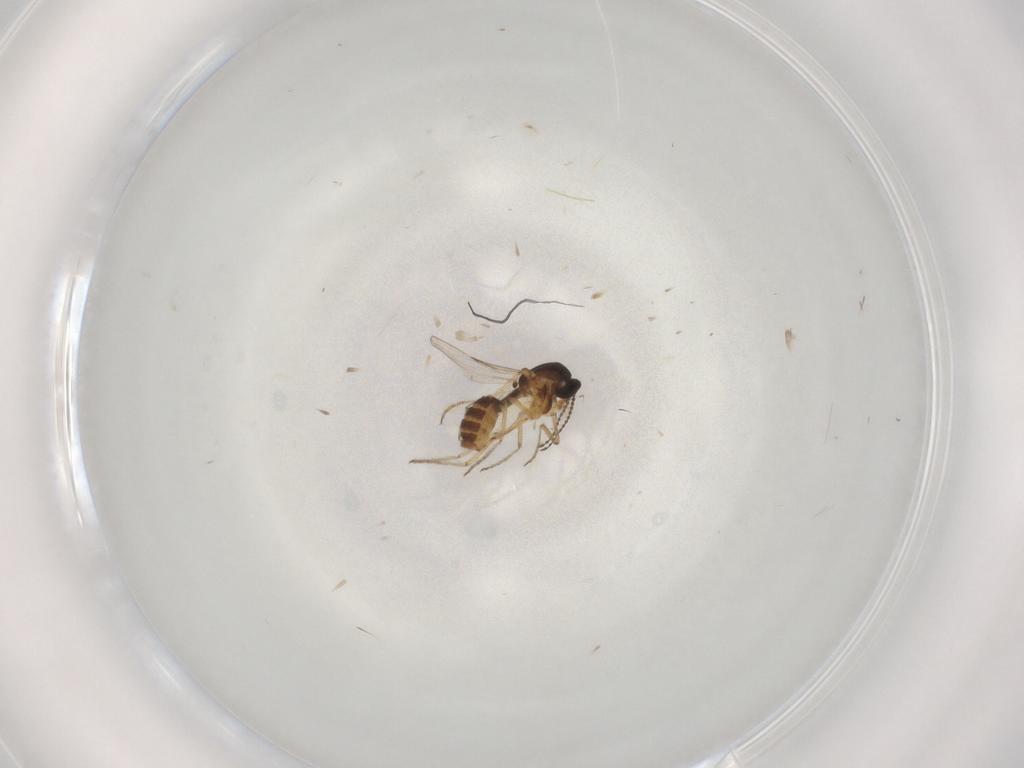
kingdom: Animalia
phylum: Arthropoda
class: Insecta
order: Diptera
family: Ceratopogonidae
